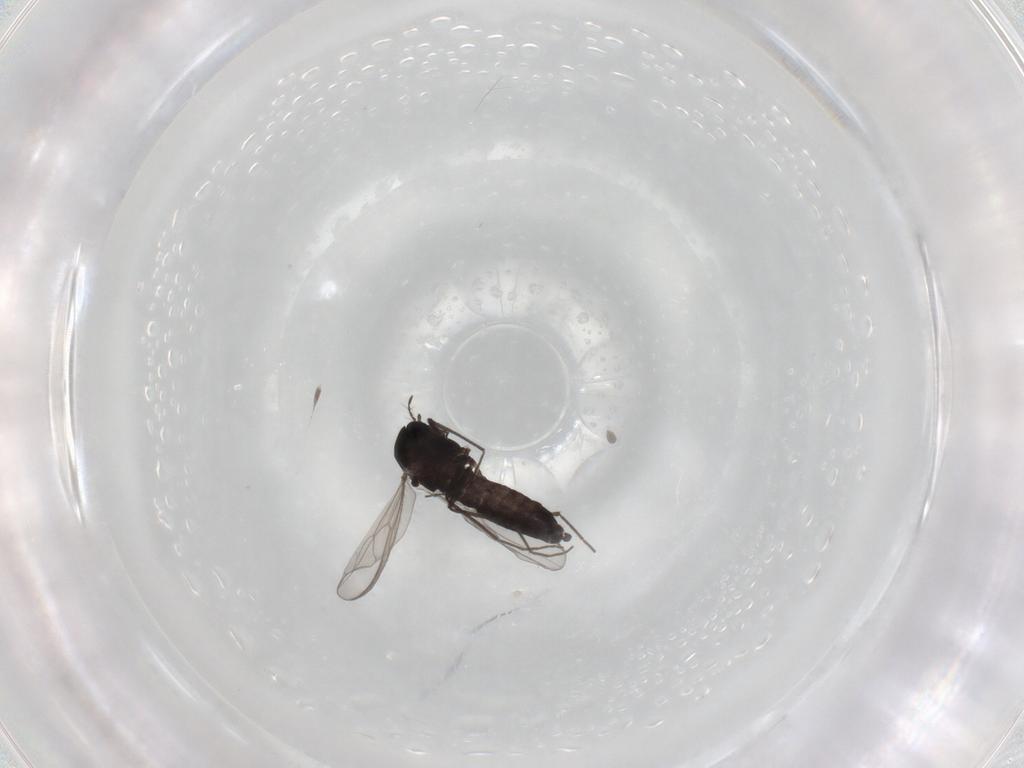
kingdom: Animalia
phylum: Arthropoda
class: Insecta
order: Diptera
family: Chironomidae
